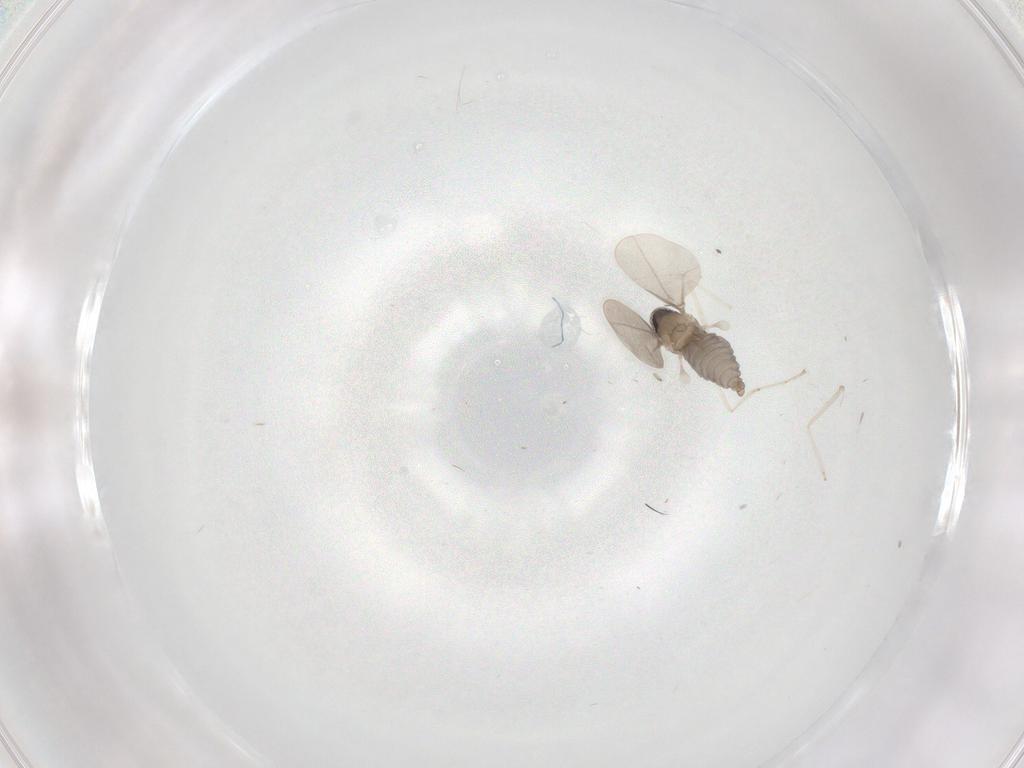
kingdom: Animalia
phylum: Arthropoda
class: Insecta
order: Diptera
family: Cecidomyiidae
